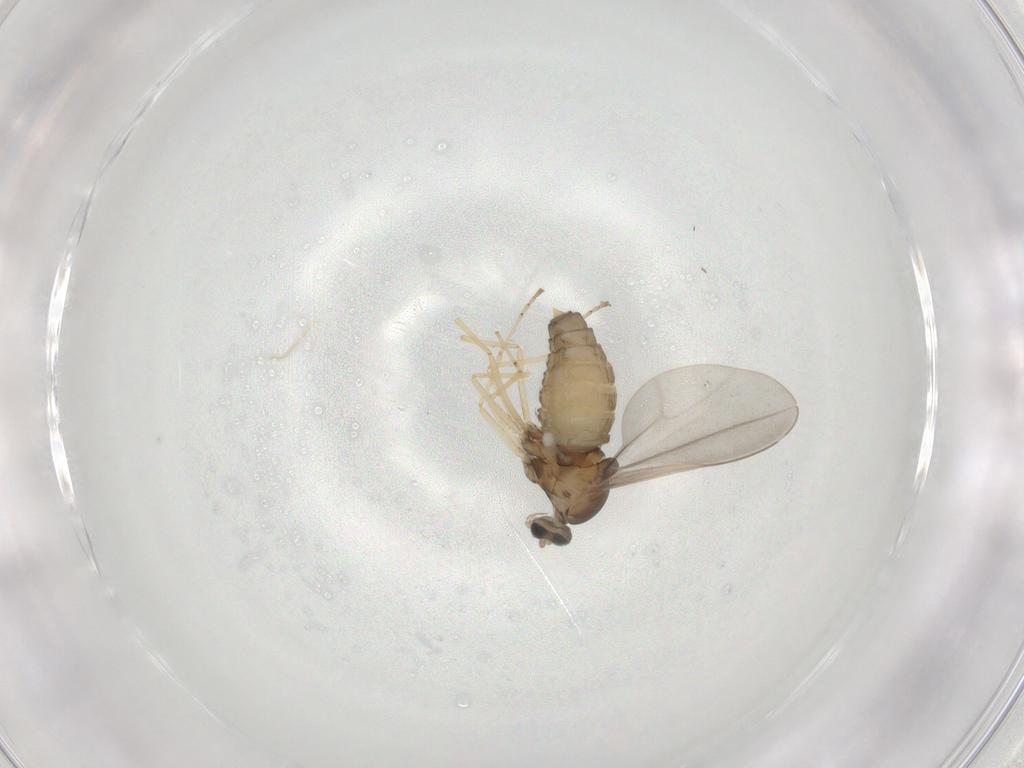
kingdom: Animalia
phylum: Arthropoda
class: Insecta
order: Diptera
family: Cecidomyiidae
